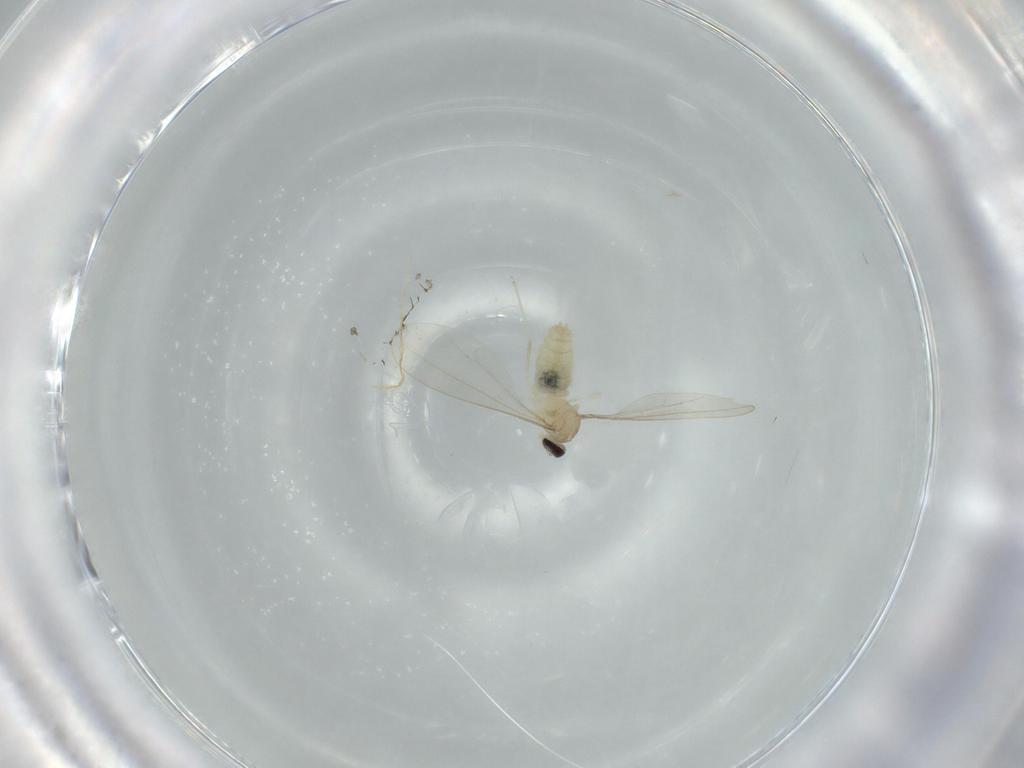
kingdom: Animalia
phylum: Arthropoda
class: Insecta
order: Diptera
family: Cecidomyiidae
